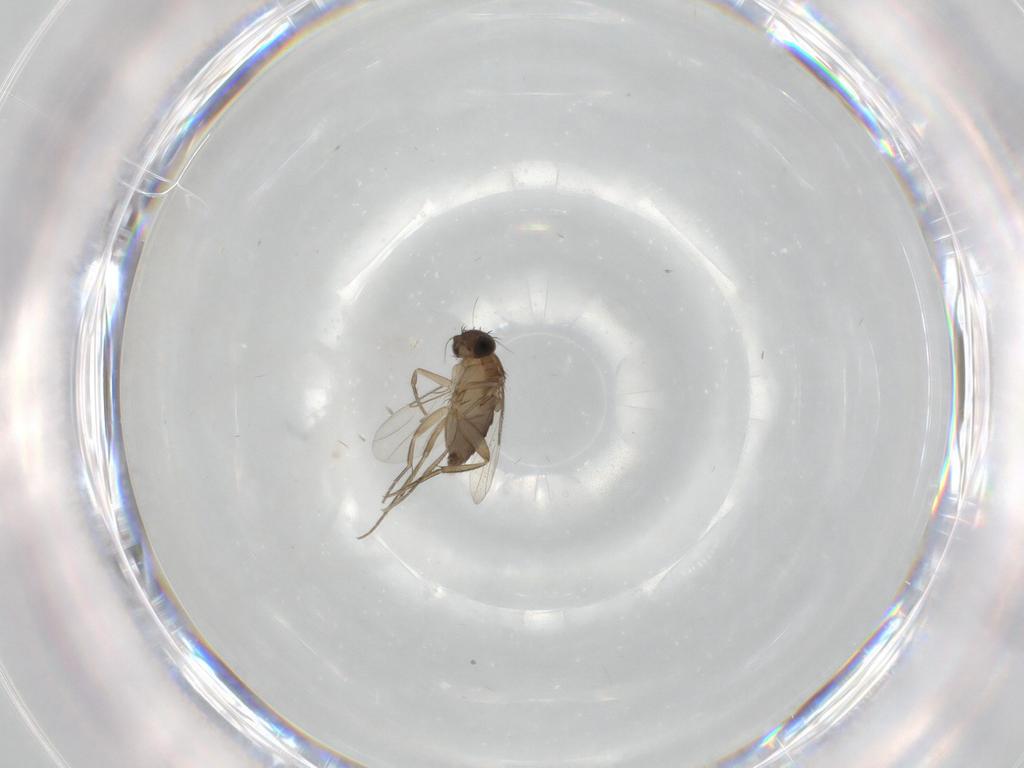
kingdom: Animalia
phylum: Arthropoda
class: Insecta
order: Diptera
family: Phoridae
